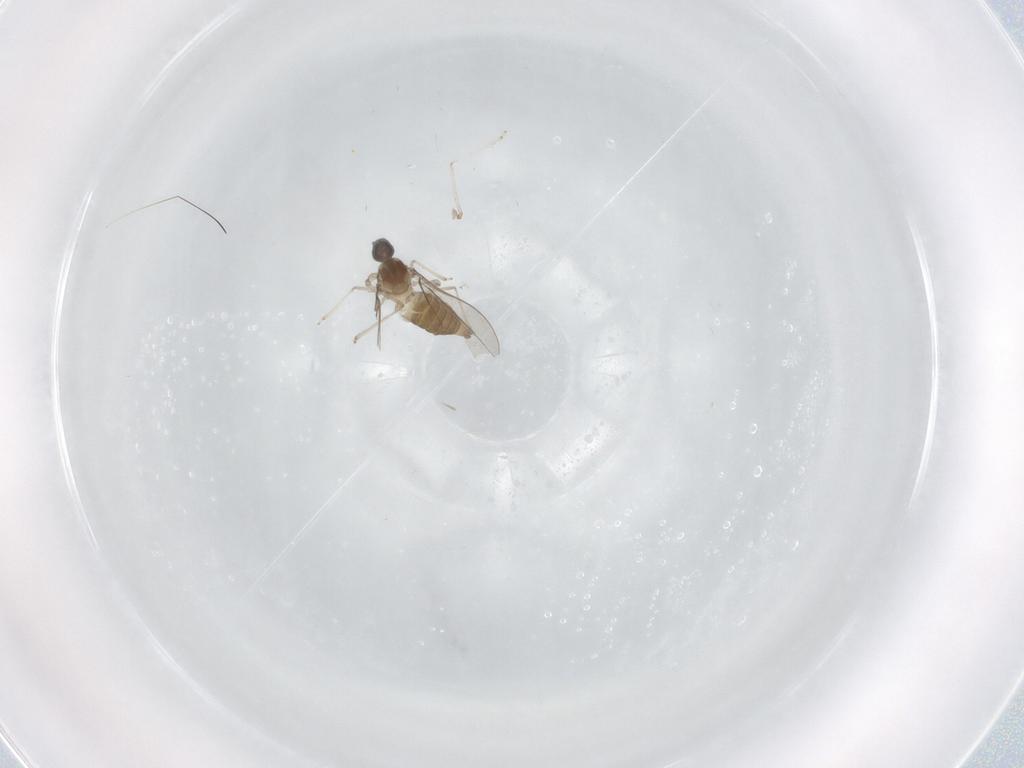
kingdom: Animalia
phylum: Arthropoda
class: Insecta
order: Diptera
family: Cecidomyiidae
